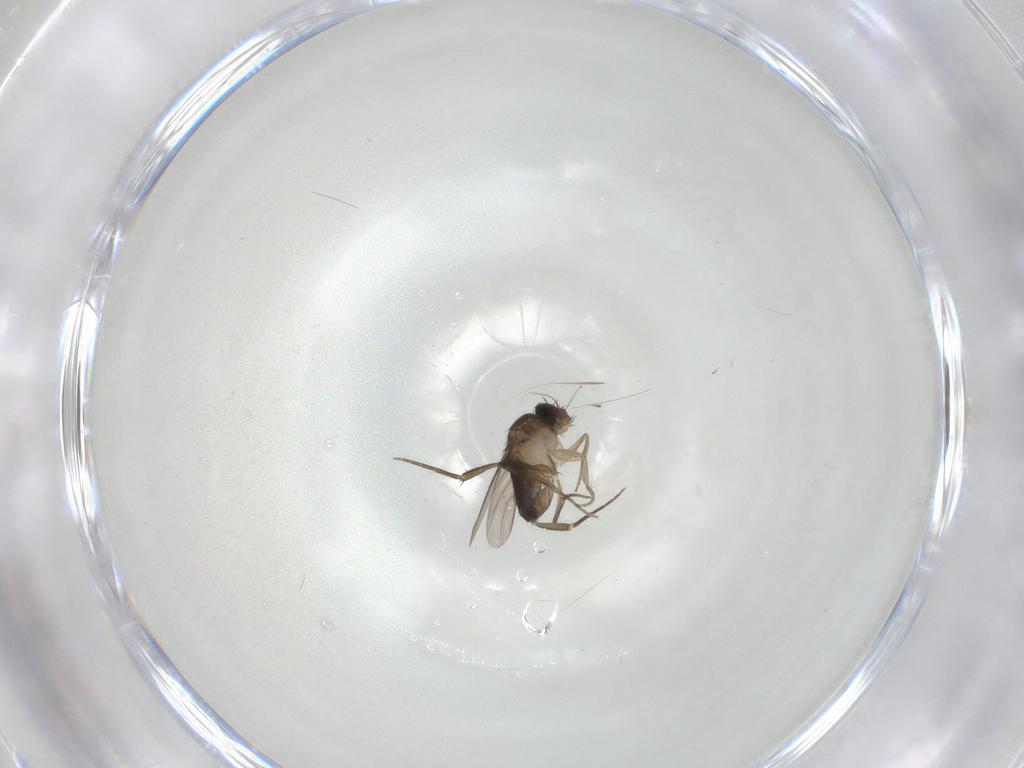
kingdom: Animalia
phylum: Arthropoda
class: Insecta
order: Diptera
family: Phoridae
